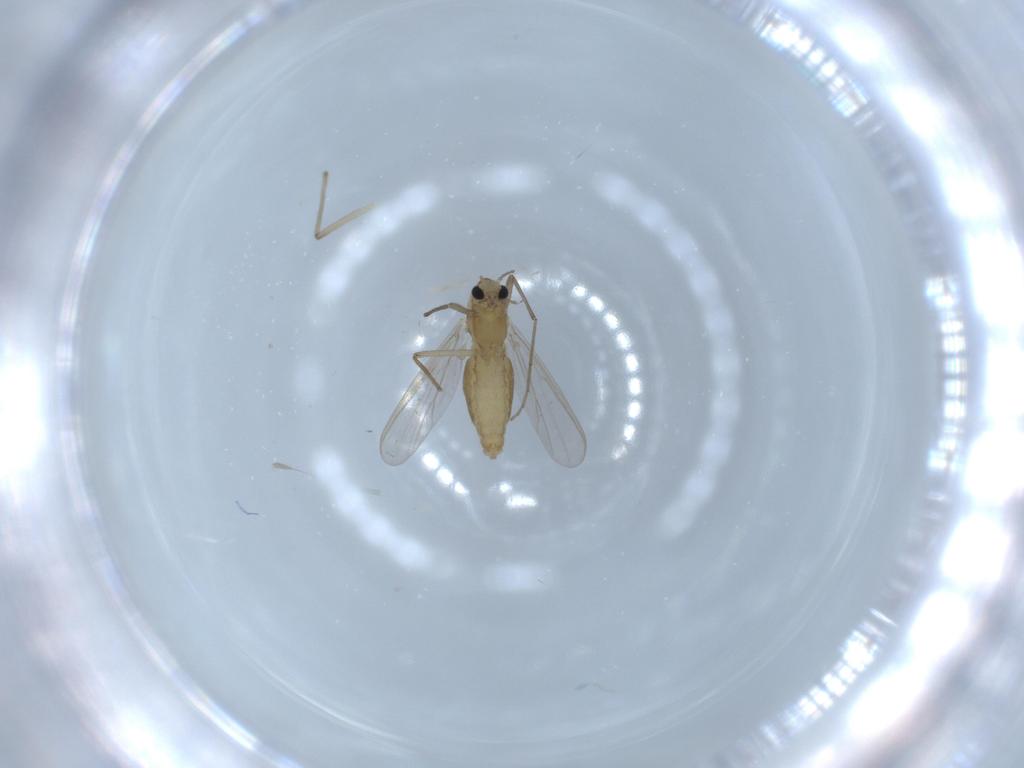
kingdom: Animalia
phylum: Arthropoda
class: Insecta
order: Diptera
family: Chironomidae
